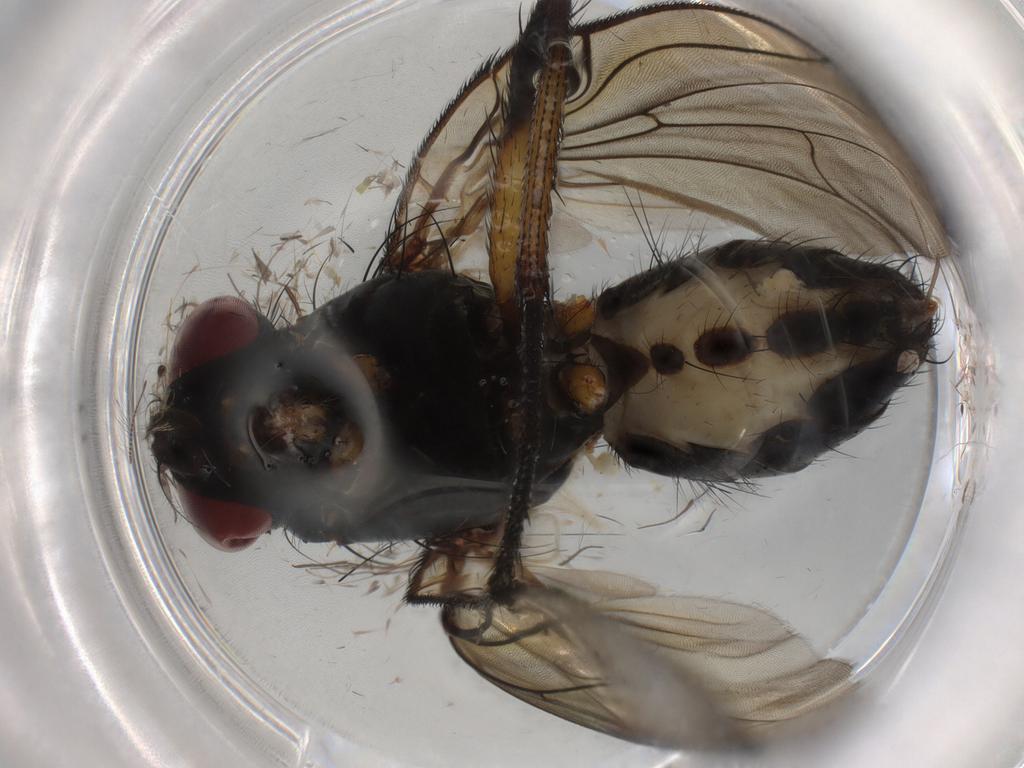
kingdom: Animalia
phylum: Arthropoda
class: Insecta
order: Diptera
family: Anthomyiidae
